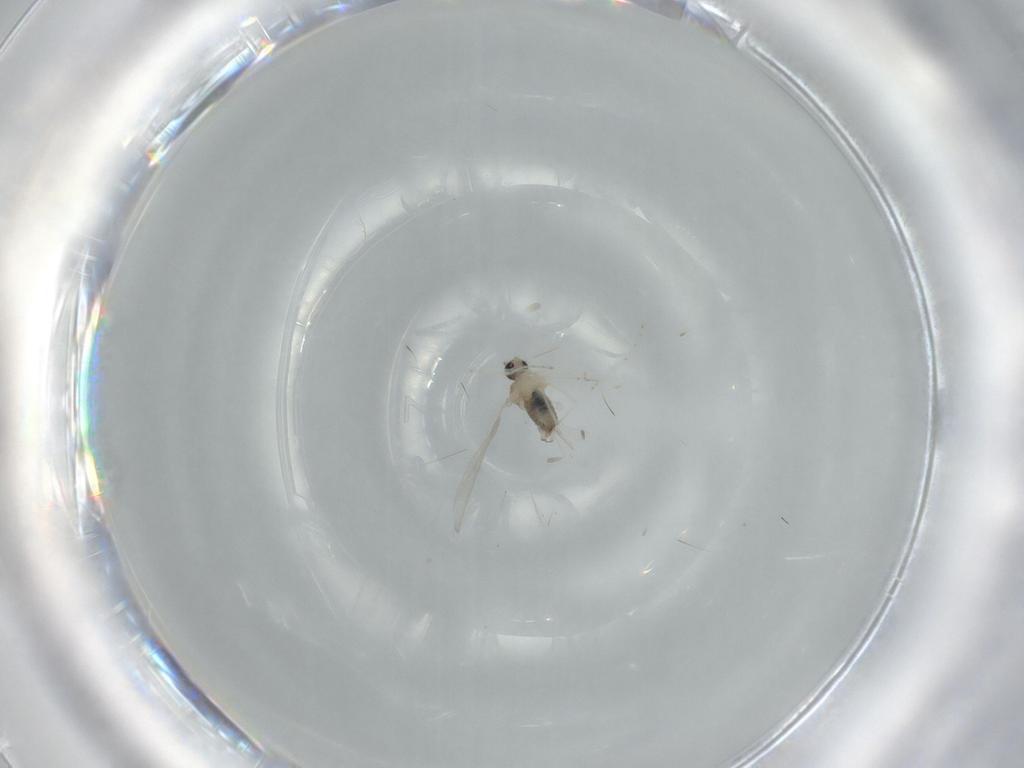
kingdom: Animalia
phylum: Arthropoda
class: Insecta
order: Diptera
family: Cecidomyiidae
